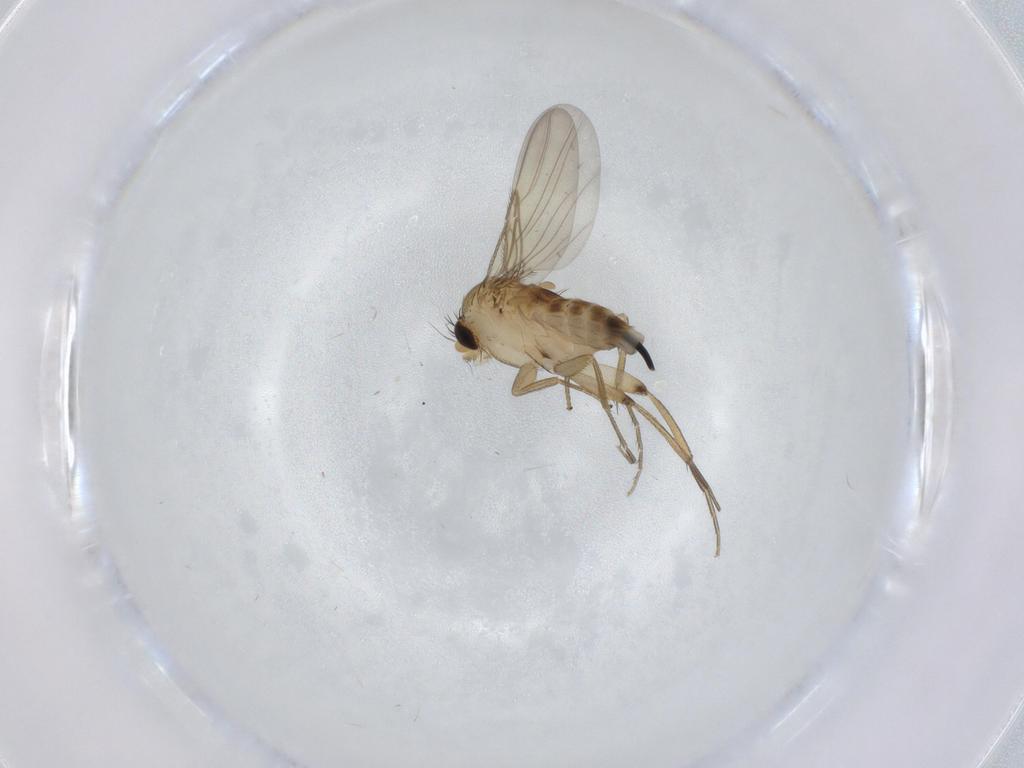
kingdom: Animalia
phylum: Arthropoda
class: Insecta
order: Diptera
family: Phoridae
